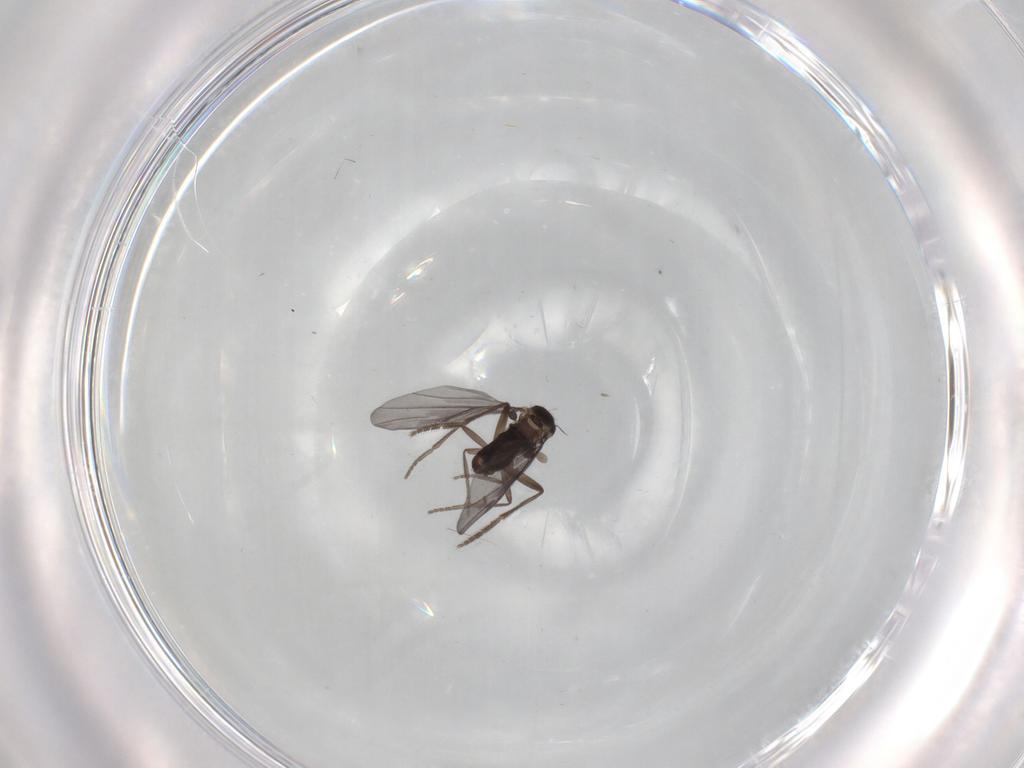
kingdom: Animalia
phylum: Arthropoda
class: Insecta
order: Diptera
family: Phoridae
